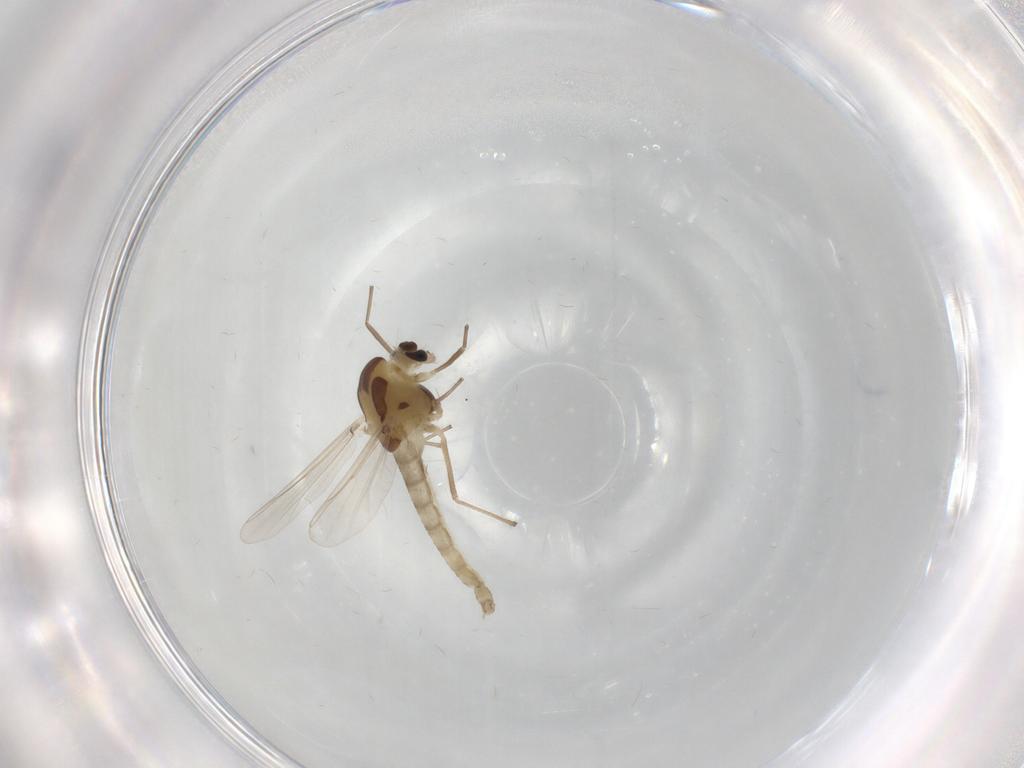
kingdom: Animalia
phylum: Arthropoda
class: Insecta
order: Diptera
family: Chironomidae
